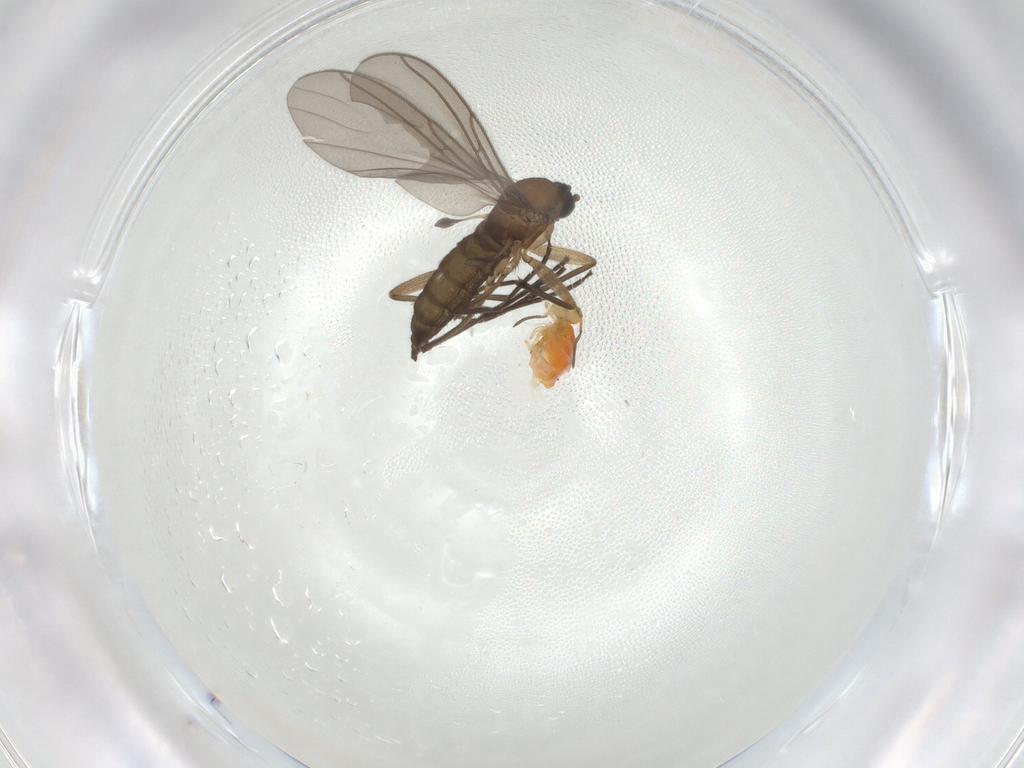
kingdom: Animalia
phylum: Arthropoda
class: Insecta
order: Diptera
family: Sciaridae
